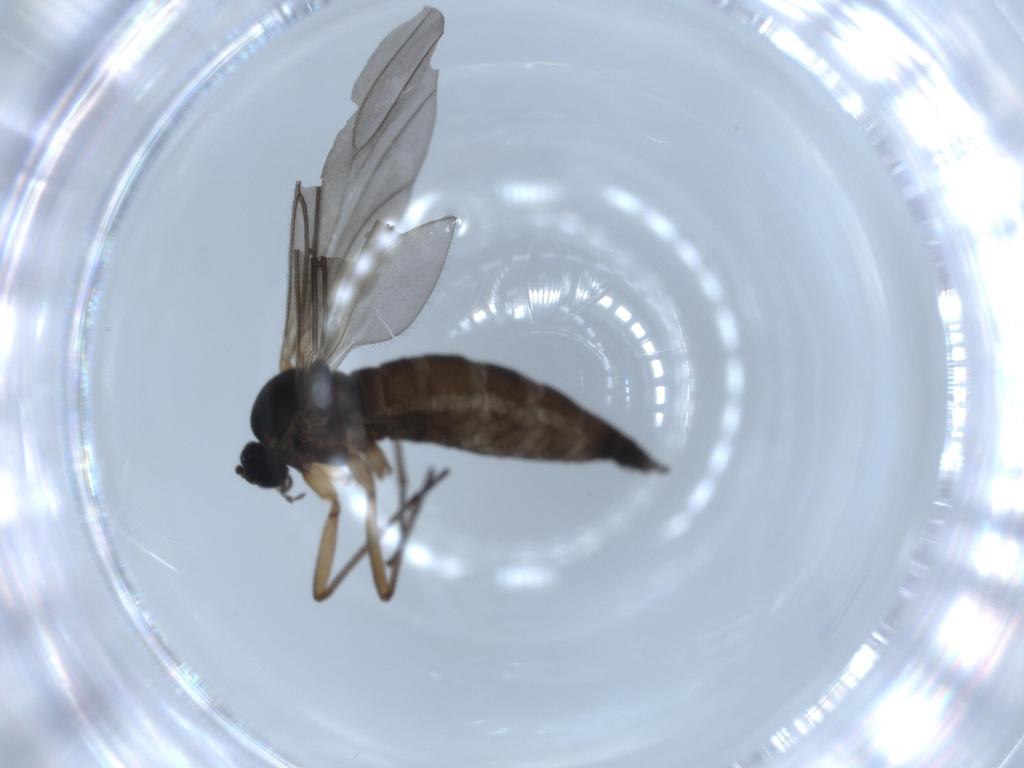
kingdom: Animalia
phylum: Arthropoda
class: Insecta
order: Diptera
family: Sciaridae
